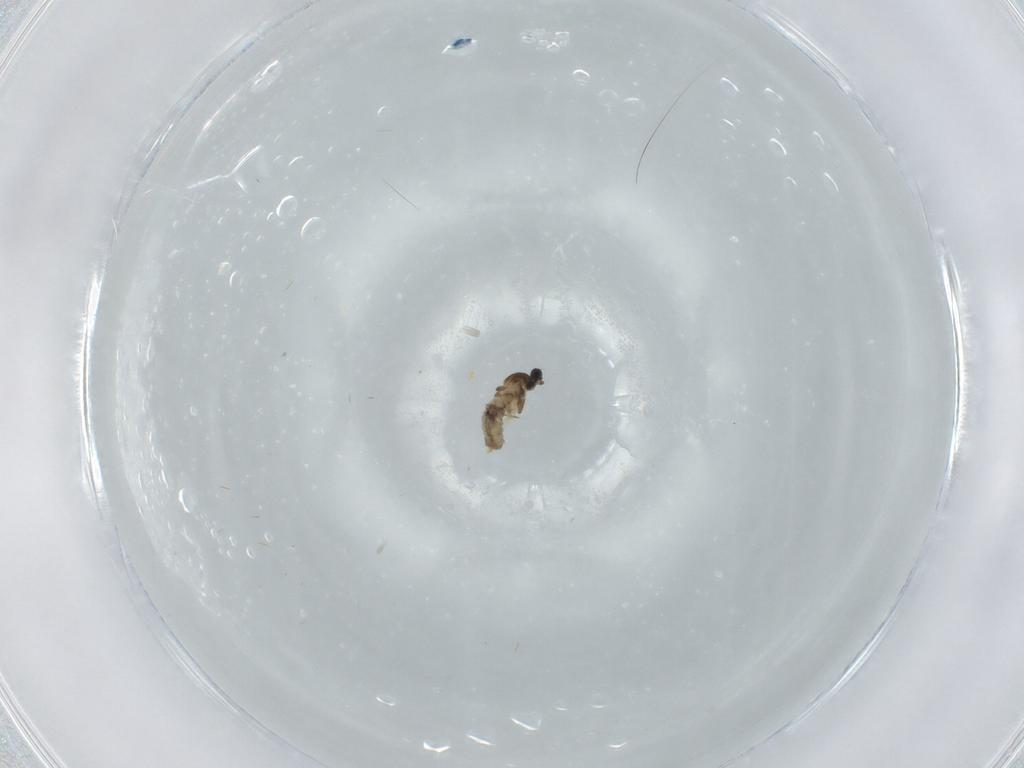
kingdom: Animalia
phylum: Arthropoda
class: Insecta
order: Diptera
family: Cecidomyiidae
